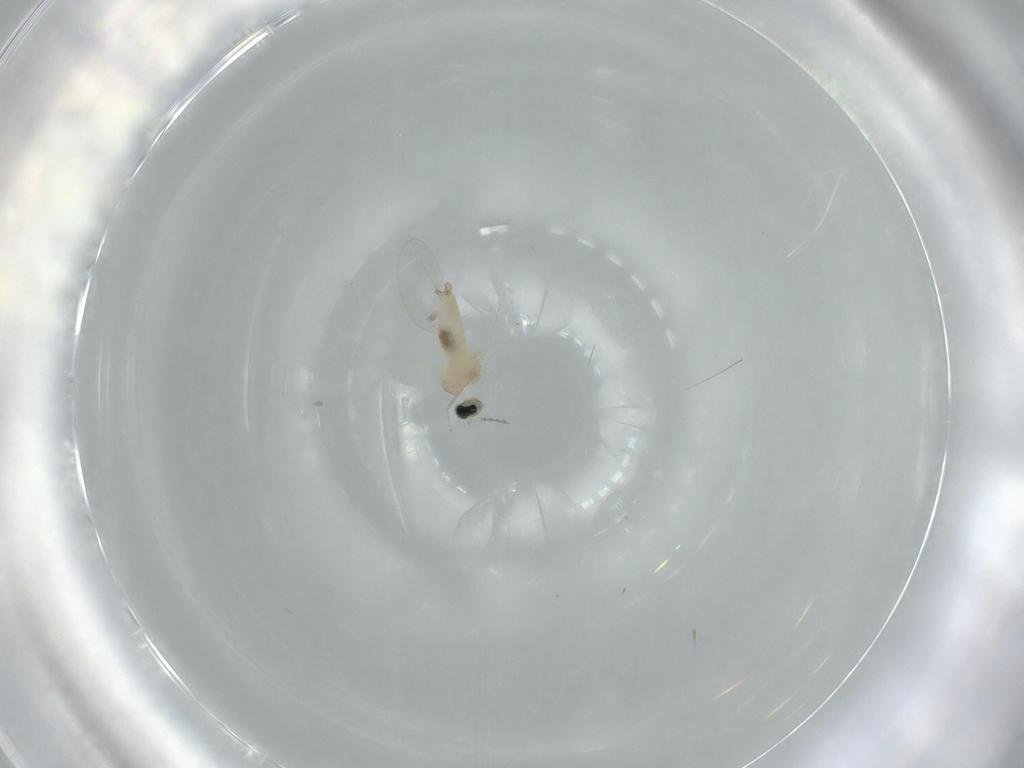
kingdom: Animalia
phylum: Arthropoda
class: Insecta
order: Diptera
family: Cecidomyiidae
